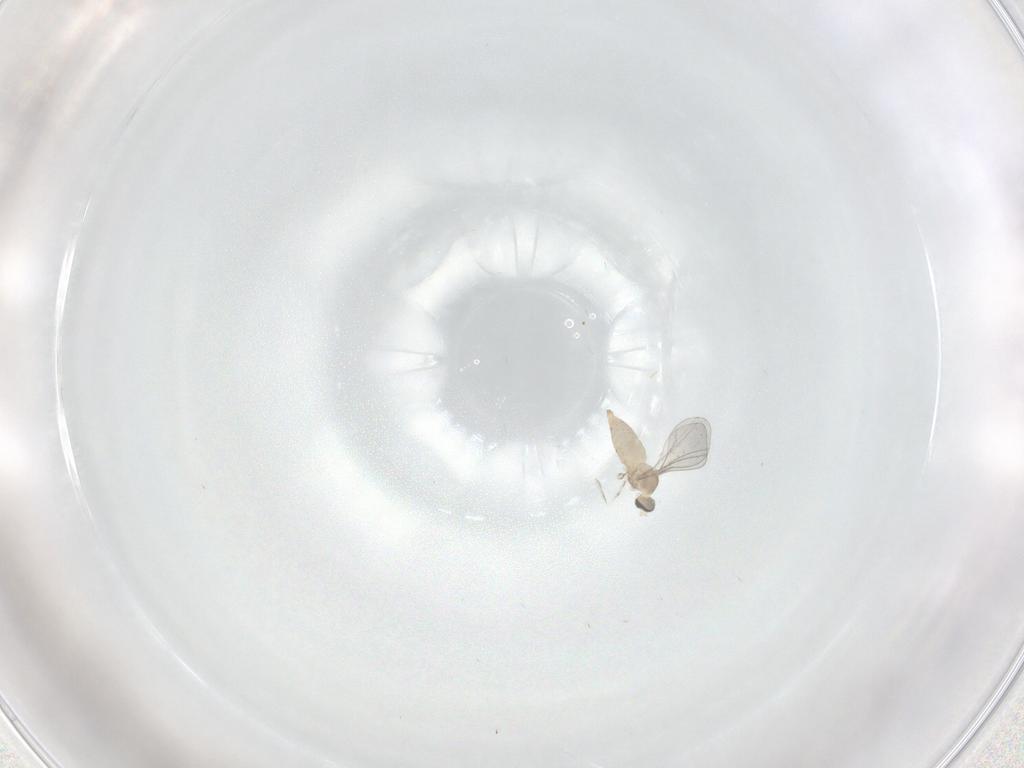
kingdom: Animalia
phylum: Arthropoda
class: Insecta
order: Diptera
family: Cecidomyiidae
